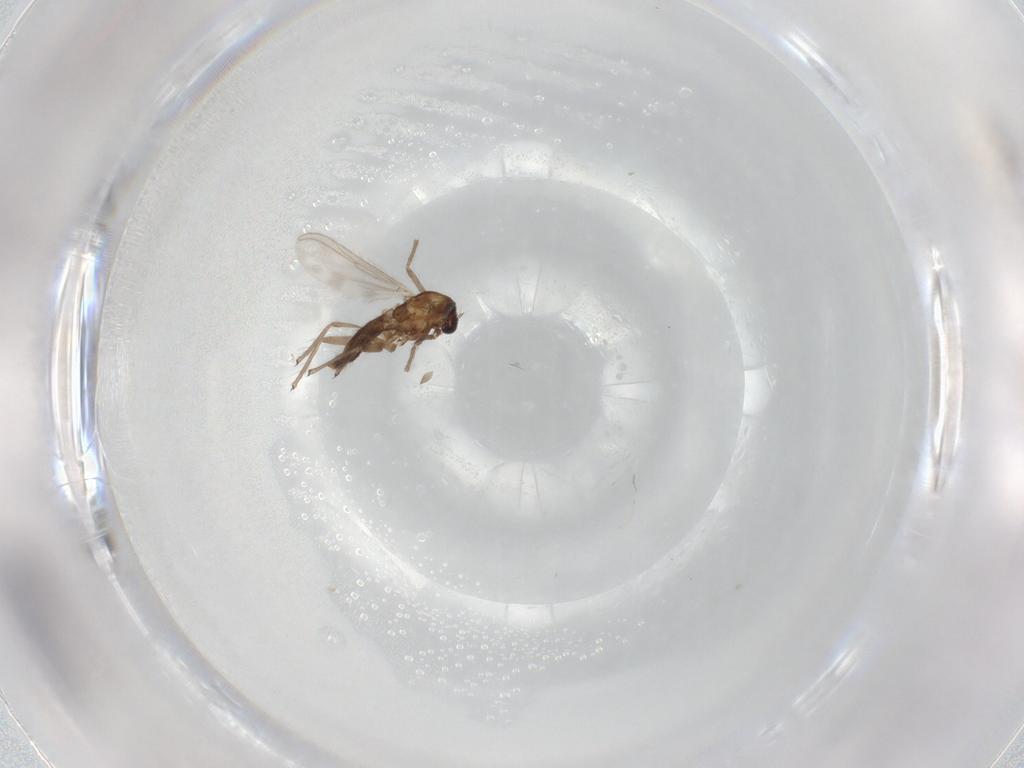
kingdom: Animalia
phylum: Arthropoda
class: Insecta
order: Diptera
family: Chironomidae
